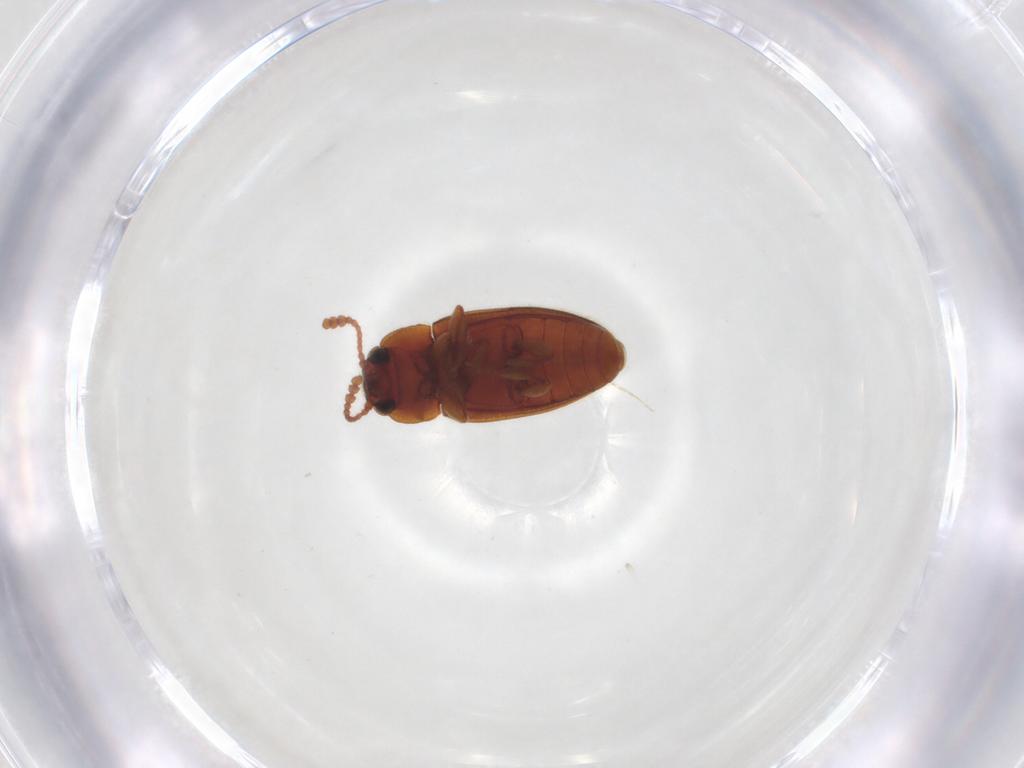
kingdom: Animalia
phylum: Arthropoda
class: Insecta
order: Coleoptera
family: Erotylidae
